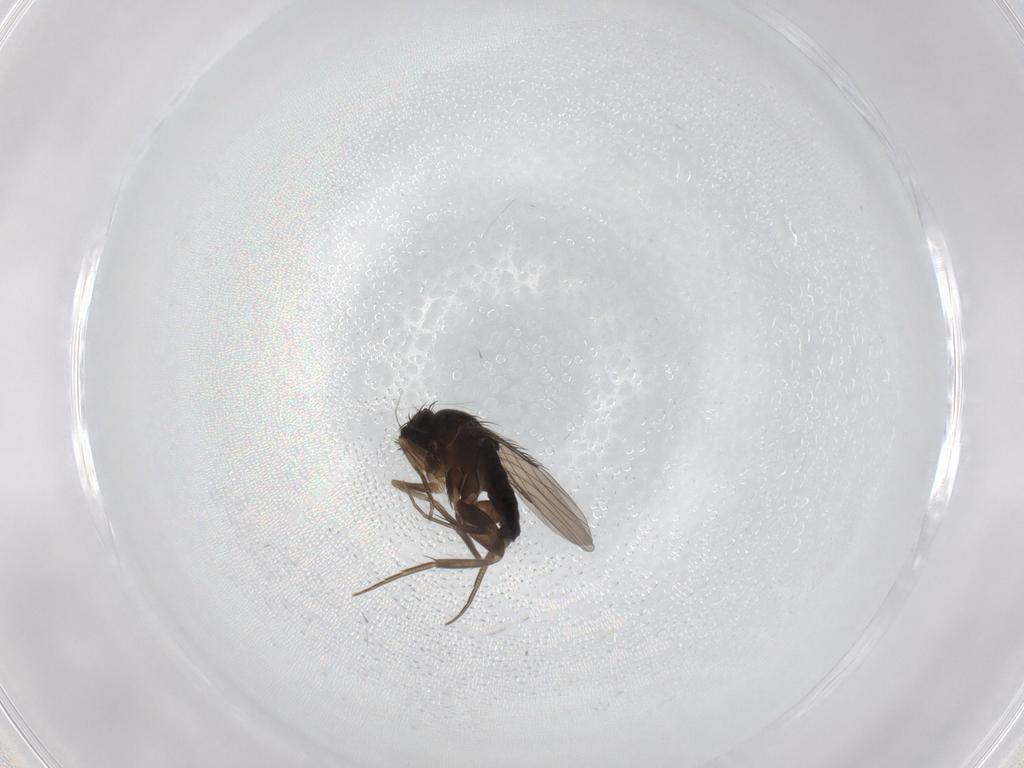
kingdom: Animalia
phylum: Arthropoda
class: Insecta
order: Diptera
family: Phoridae
